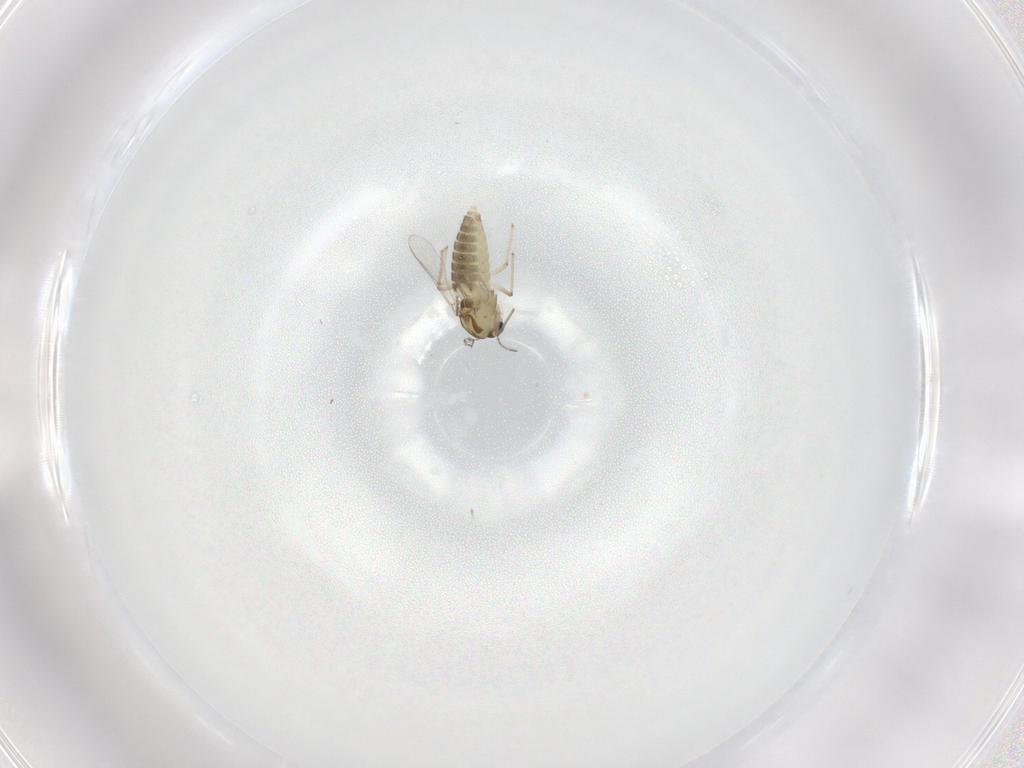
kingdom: Animalia
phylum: Arthropoda
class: Insecta
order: Diptera
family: Chironomidae
